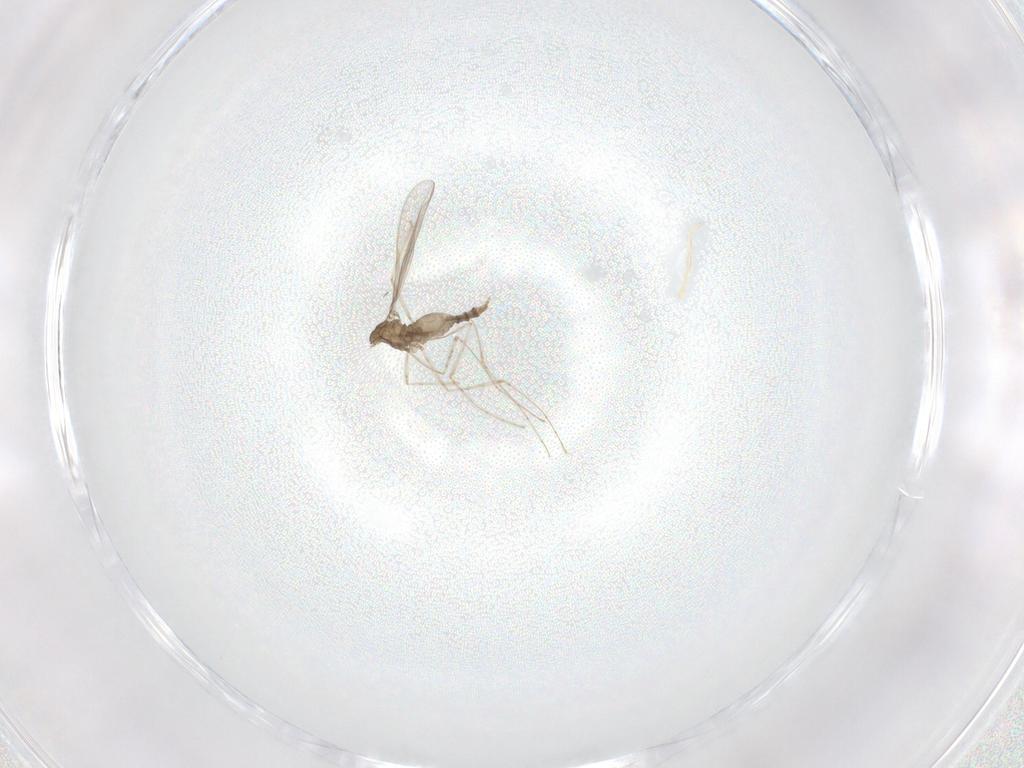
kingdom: Animalia
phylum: Arthropoda
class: Insecta
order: Diptera
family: Cecidomyiidae
